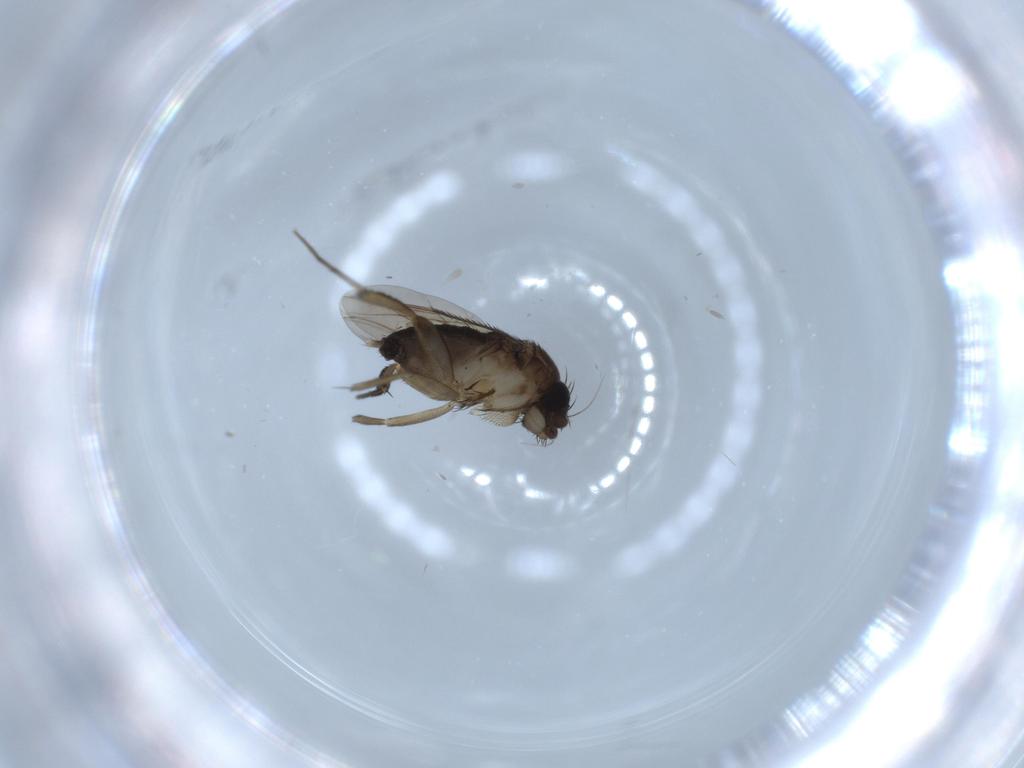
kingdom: Animalia
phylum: Arthropoda
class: Insecta
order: Diptera
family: Phoridae
